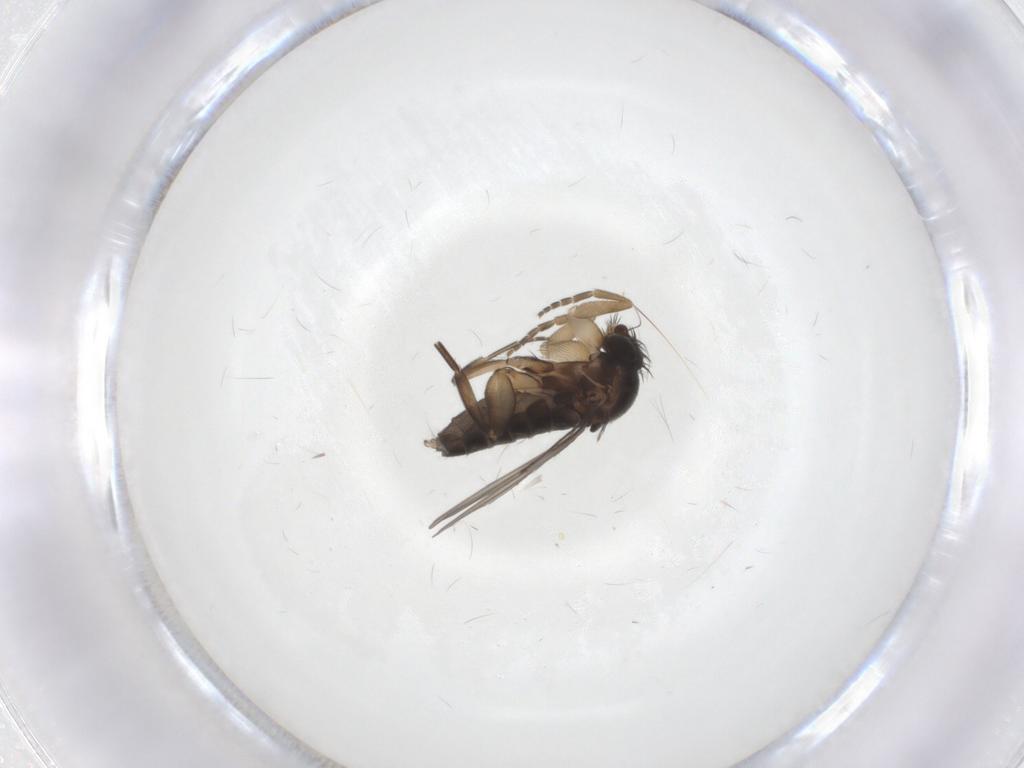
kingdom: Animalia
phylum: Arthropoda
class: Insecta
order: Diptera
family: Phoridae
